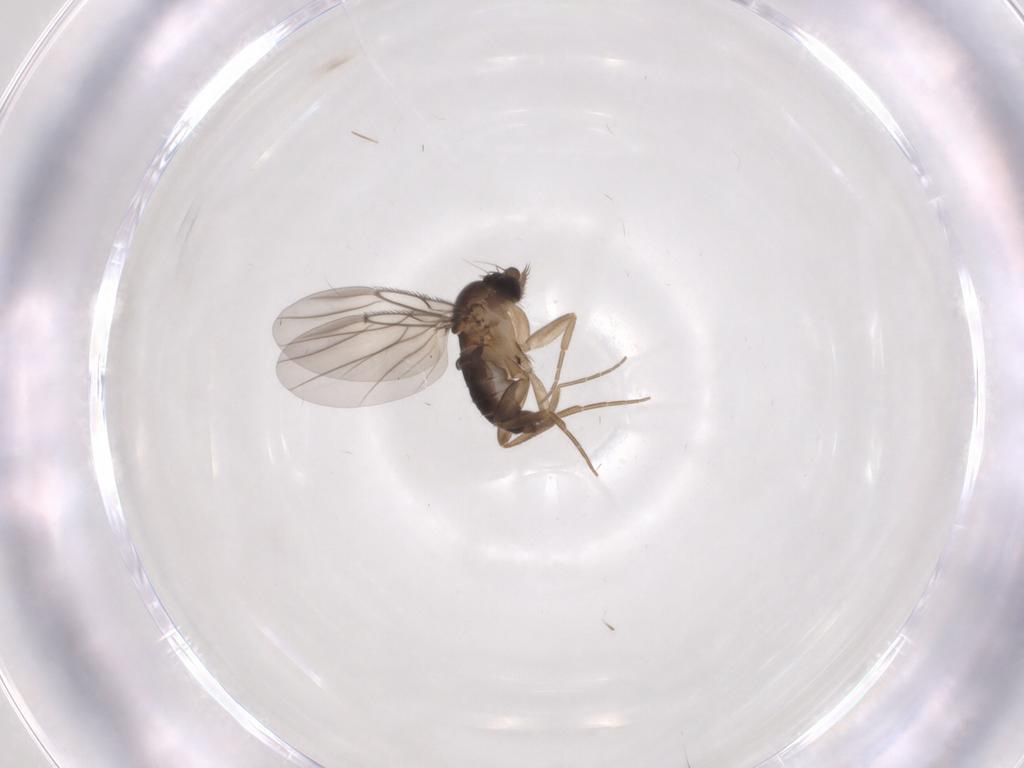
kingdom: Animalia
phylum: Arthropoda
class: Insecta
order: Diptera
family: Phoridae
